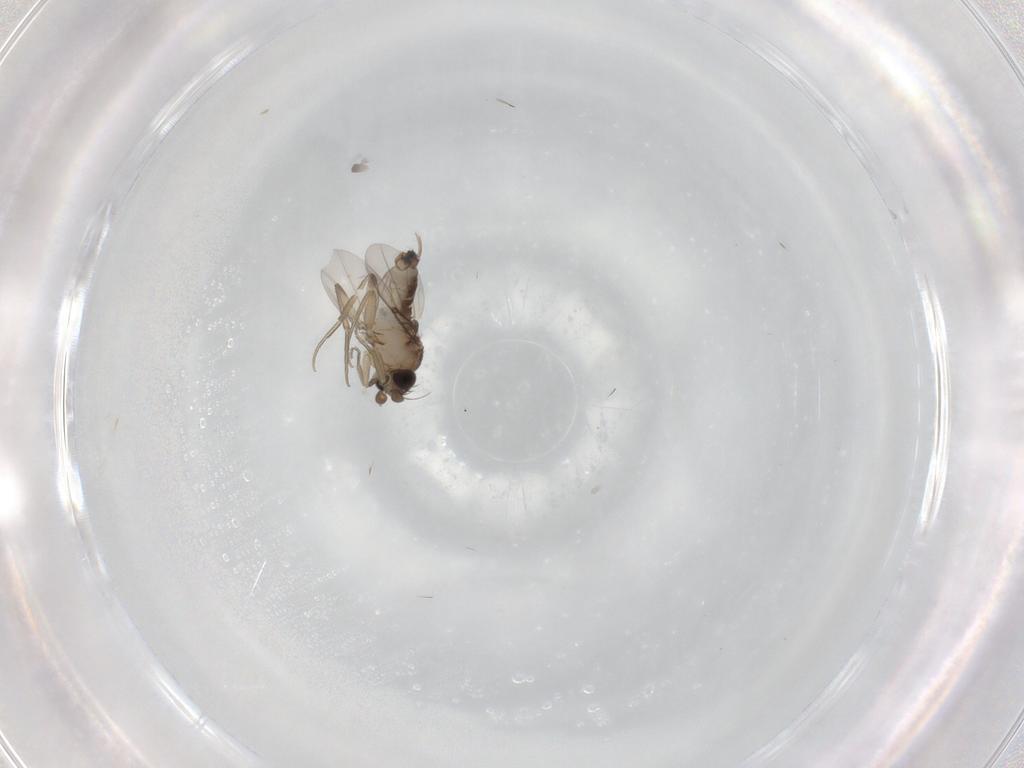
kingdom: Animalia
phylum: Arthropoda
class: Insecta
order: Diptera
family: Phoridae
